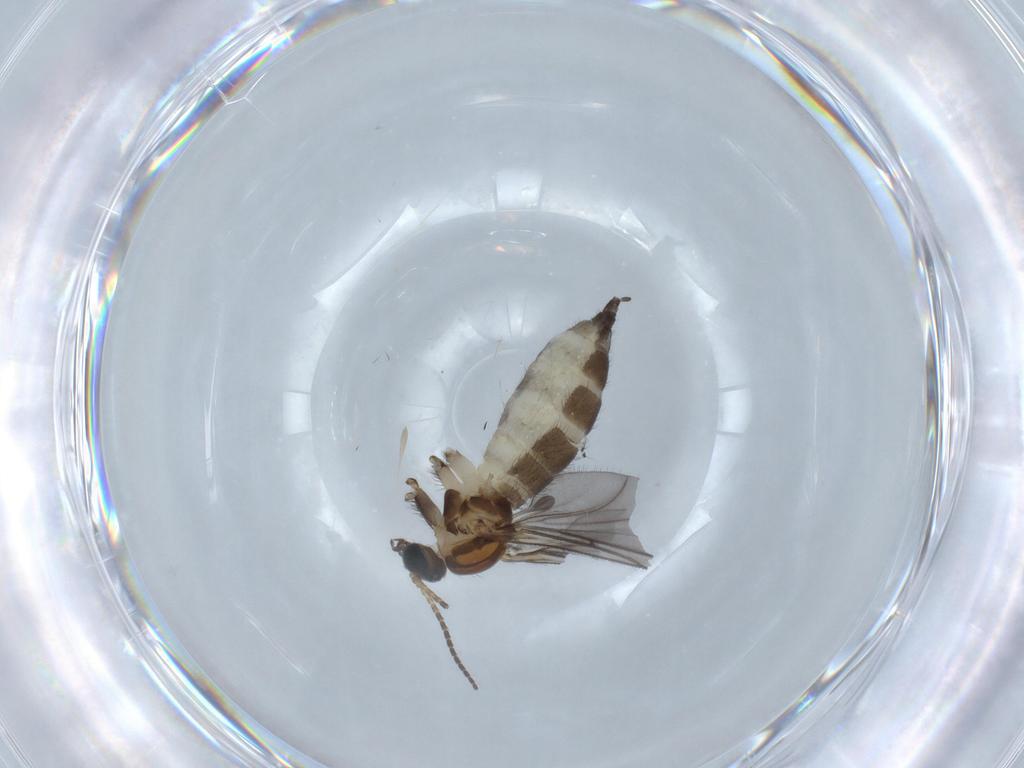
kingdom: Animalia
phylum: Arthropoda
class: Insecta
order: Diptera
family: Sciaridae
